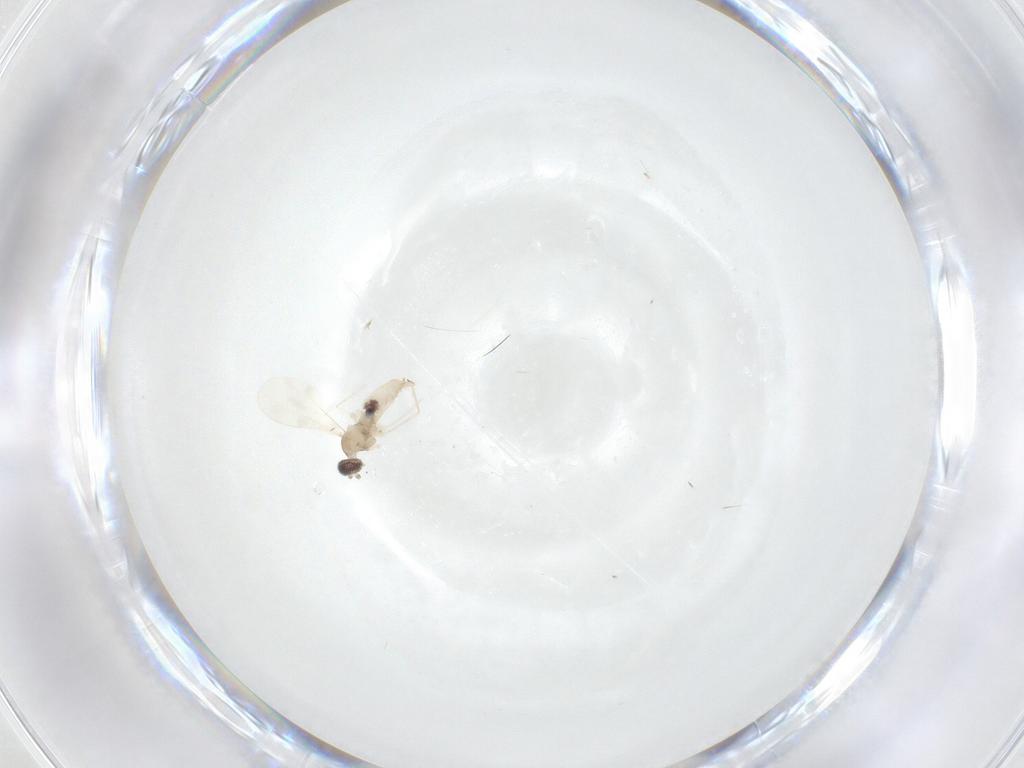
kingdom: Animalia
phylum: Arthropoda
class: Insecta
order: Diptera
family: Cecidomyiidae
